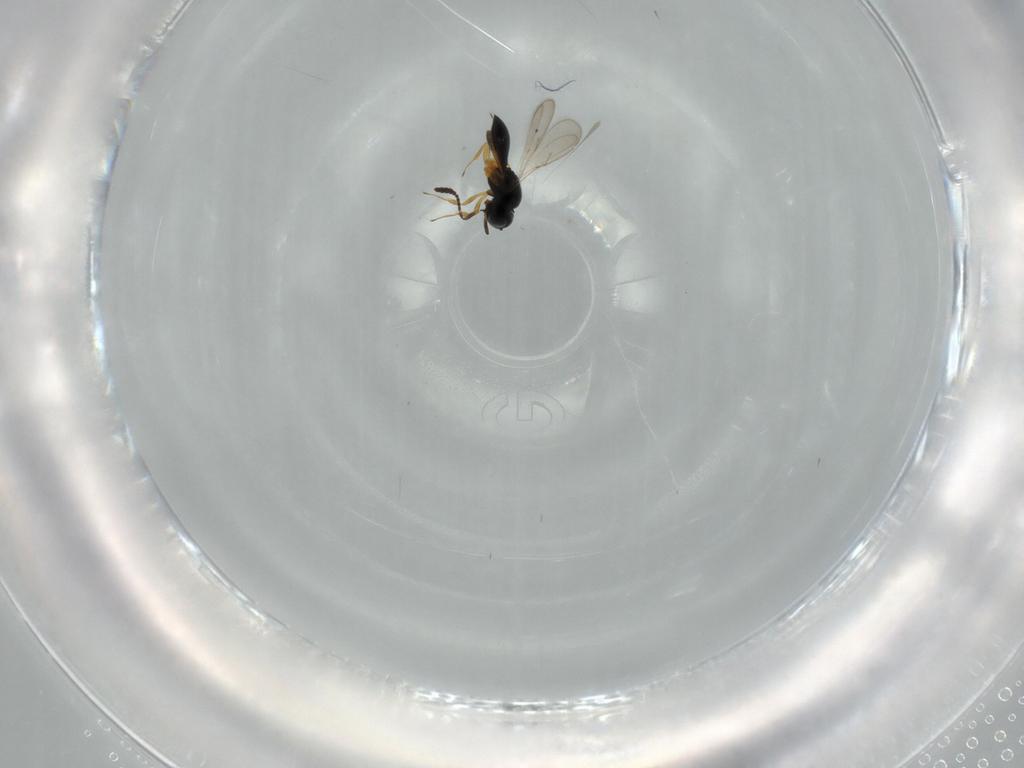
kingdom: Animalia
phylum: Arthropoda
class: Insecta
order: Hymenoptera
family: Scelionidae
